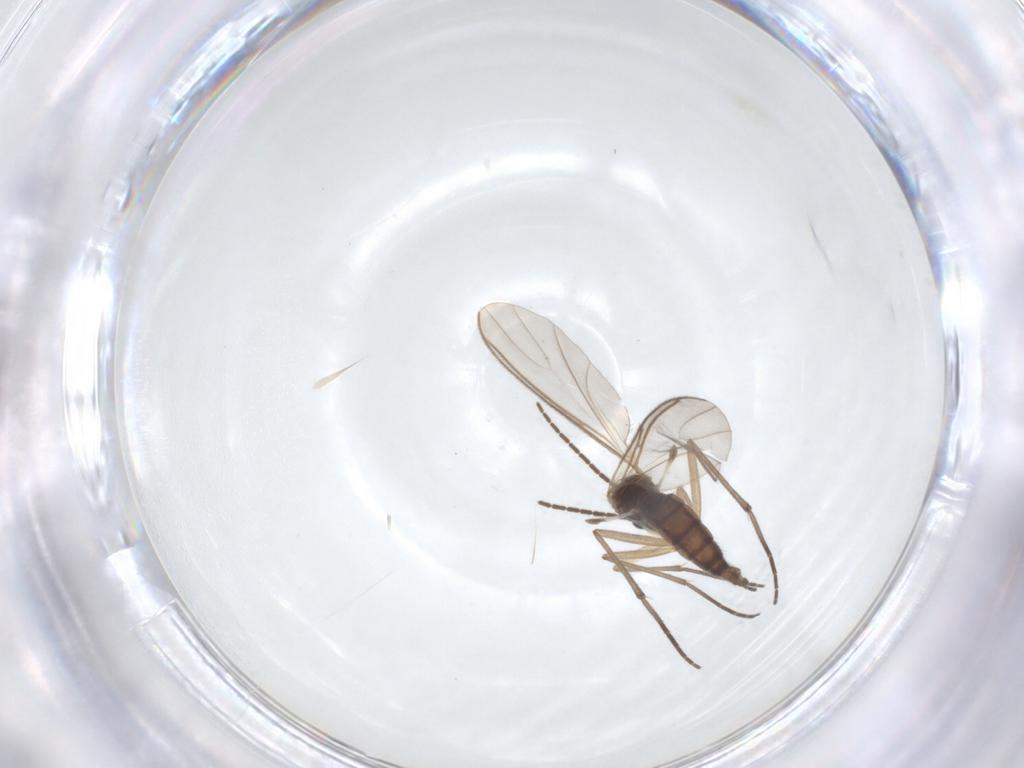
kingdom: Animalia
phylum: Arthropoda
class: Insecta
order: Diptera
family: Sciaridae
